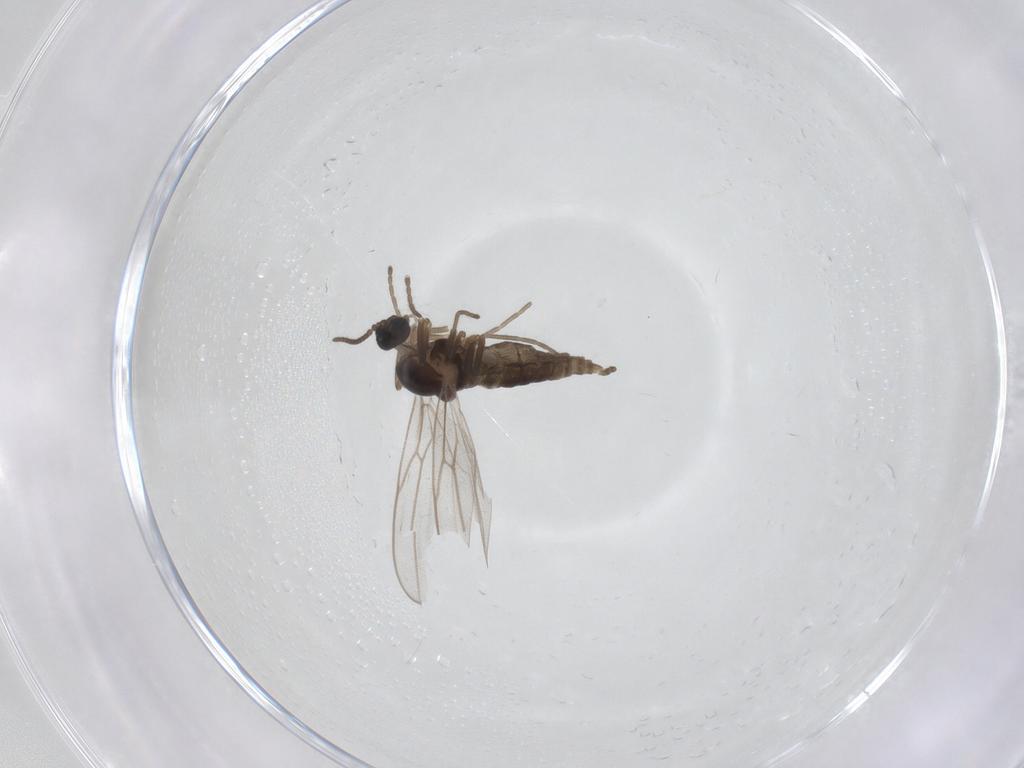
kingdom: Animalia
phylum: Arthropoda
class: Insecta
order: Diptera
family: Cecidomyiidae
